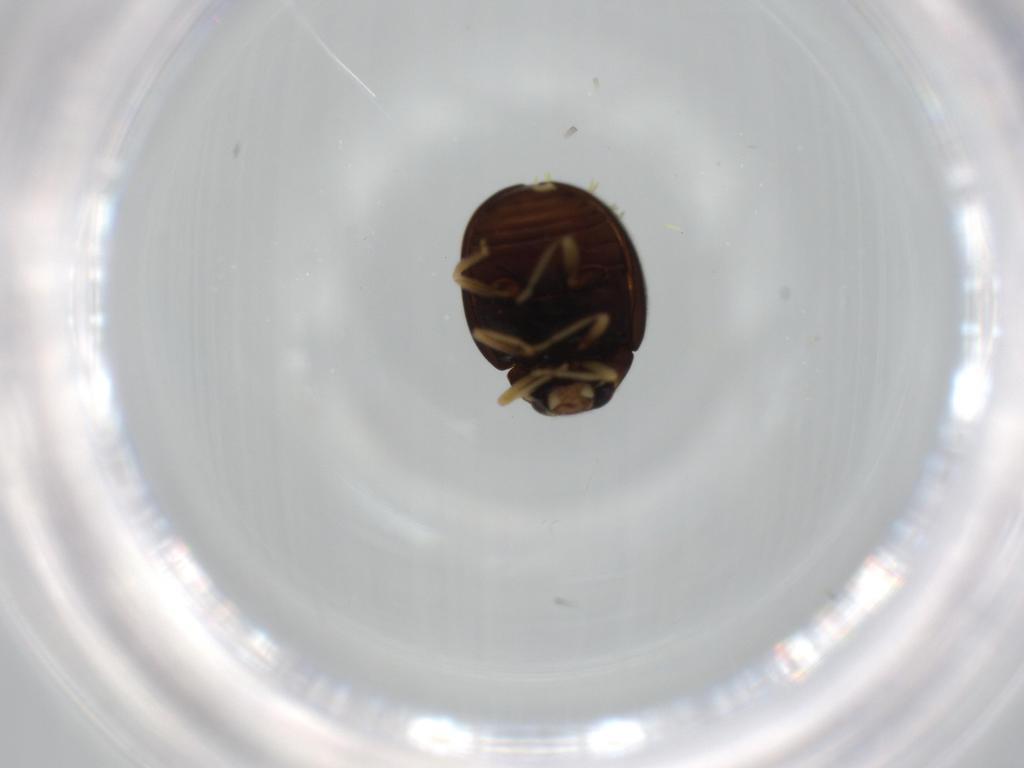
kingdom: Animalia
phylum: Arthropoda
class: Insecta
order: Coleoptera
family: Coccinellidae
